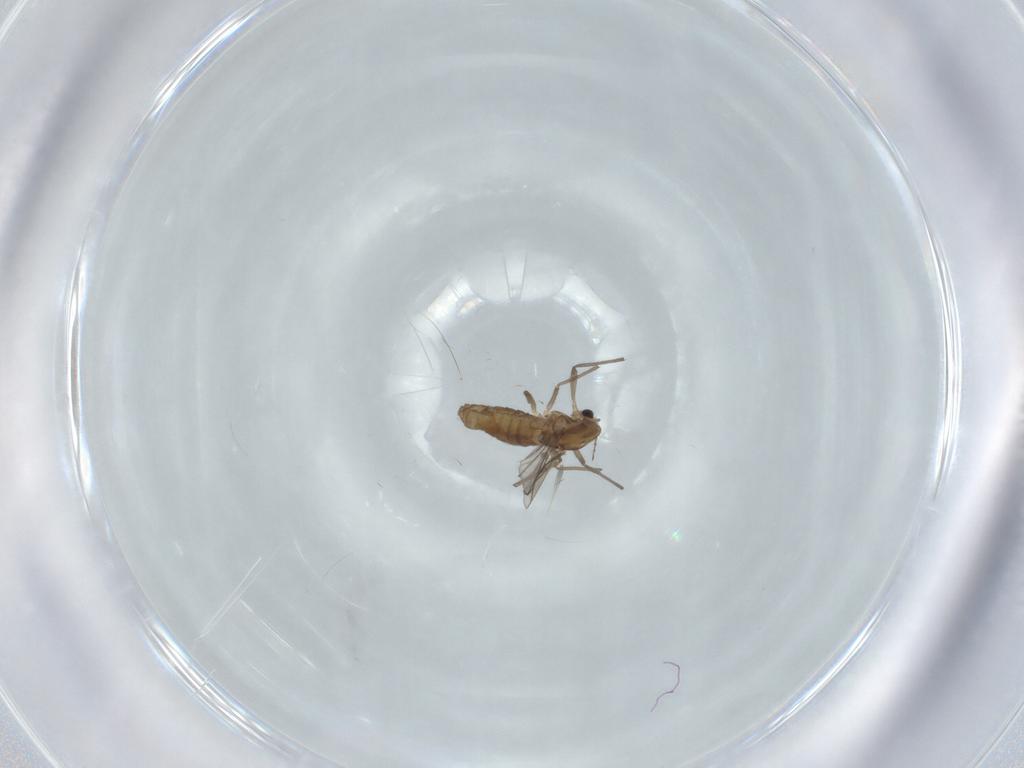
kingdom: Animalia
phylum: Arthropoda
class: Insecta
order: Diptera
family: Chironomidae
